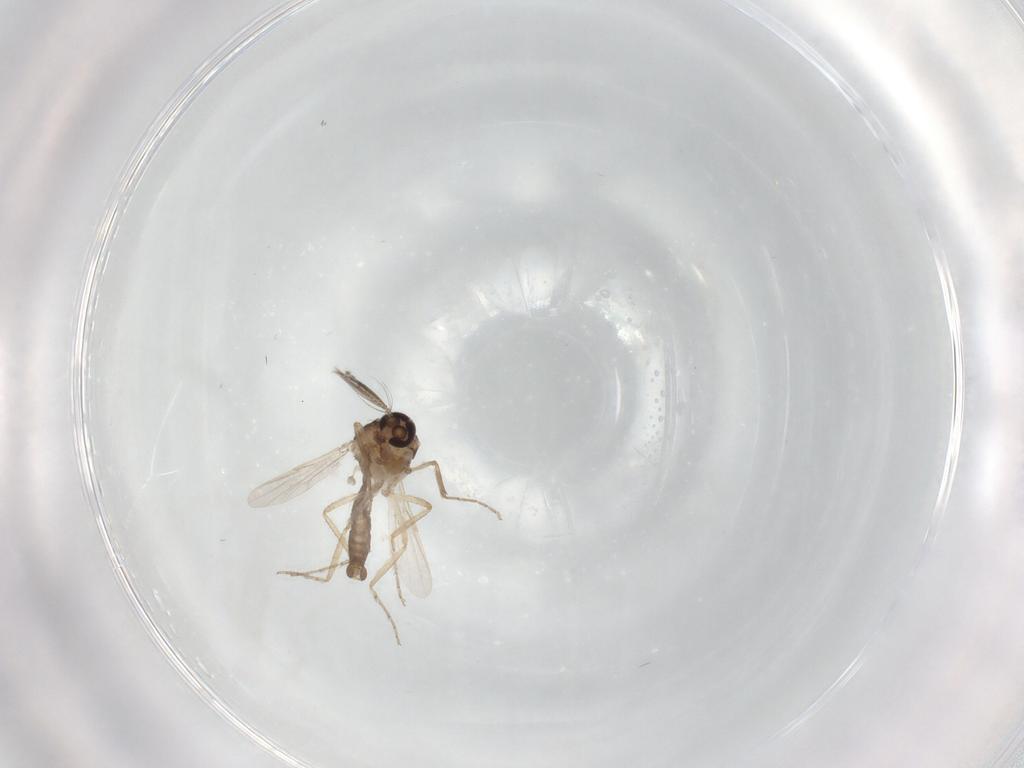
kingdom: Animalia
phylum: Arthropoda
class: Insecta
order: Diptera
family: Ceratopogonidae
